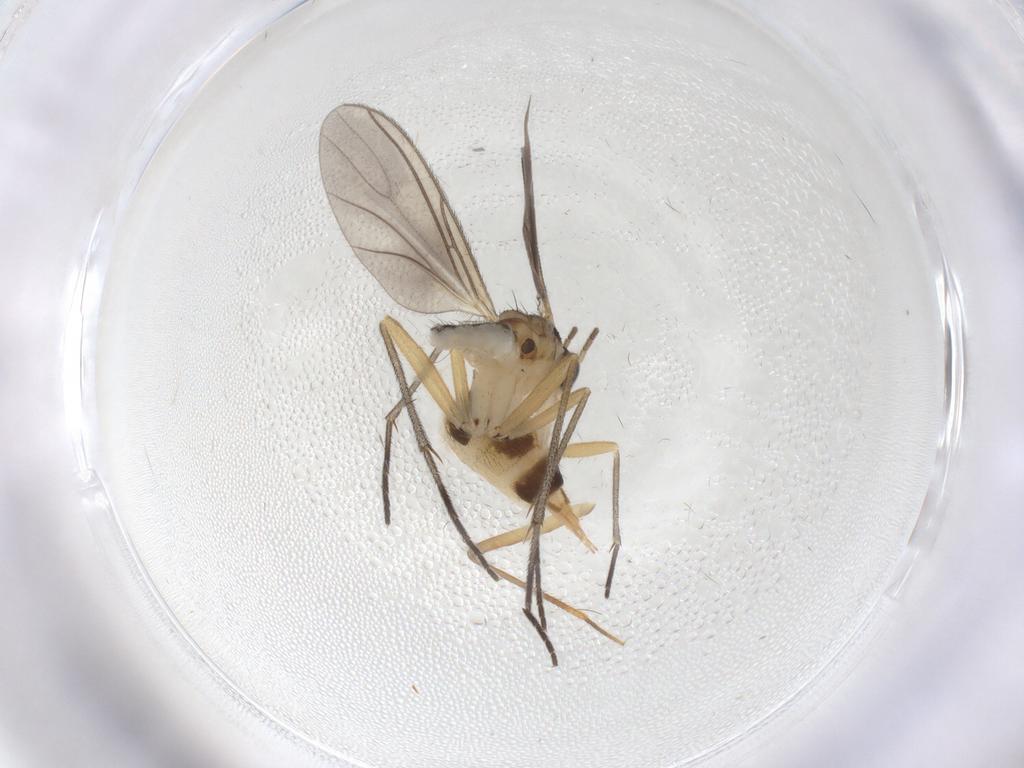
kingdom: Animalia
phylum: Arthropoda
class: Insecta
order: Diptera
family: Sciaridae
